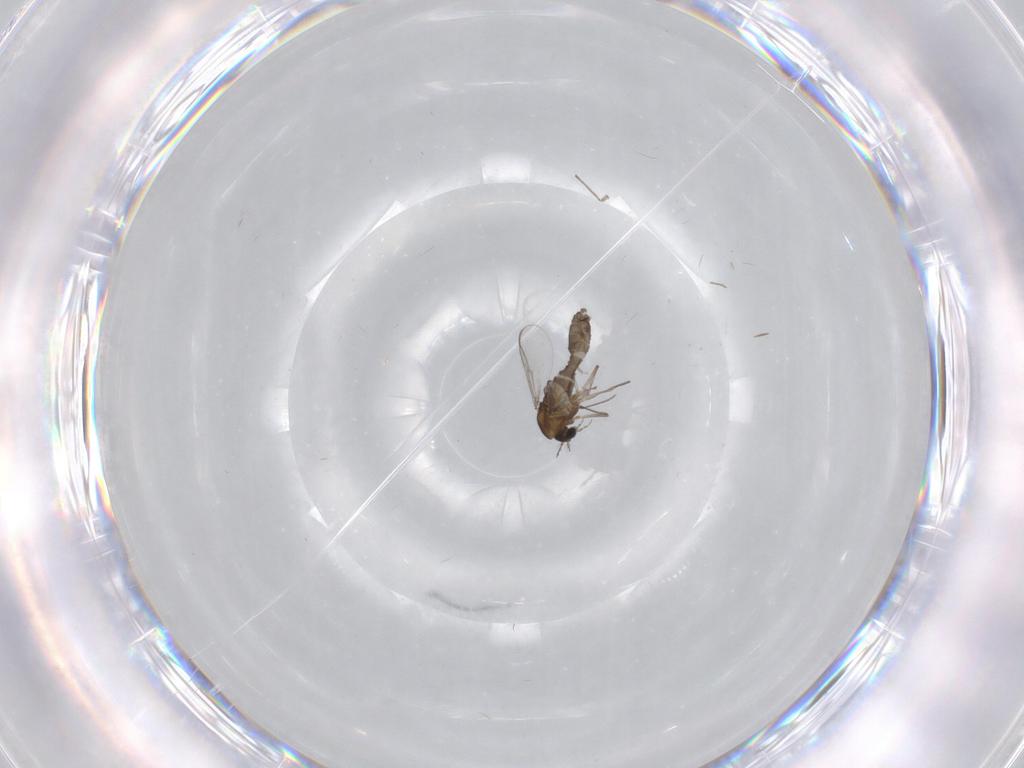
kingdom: Animalia
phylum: Arthropoda
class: Insecta
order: Diptera
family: Chironomidae
